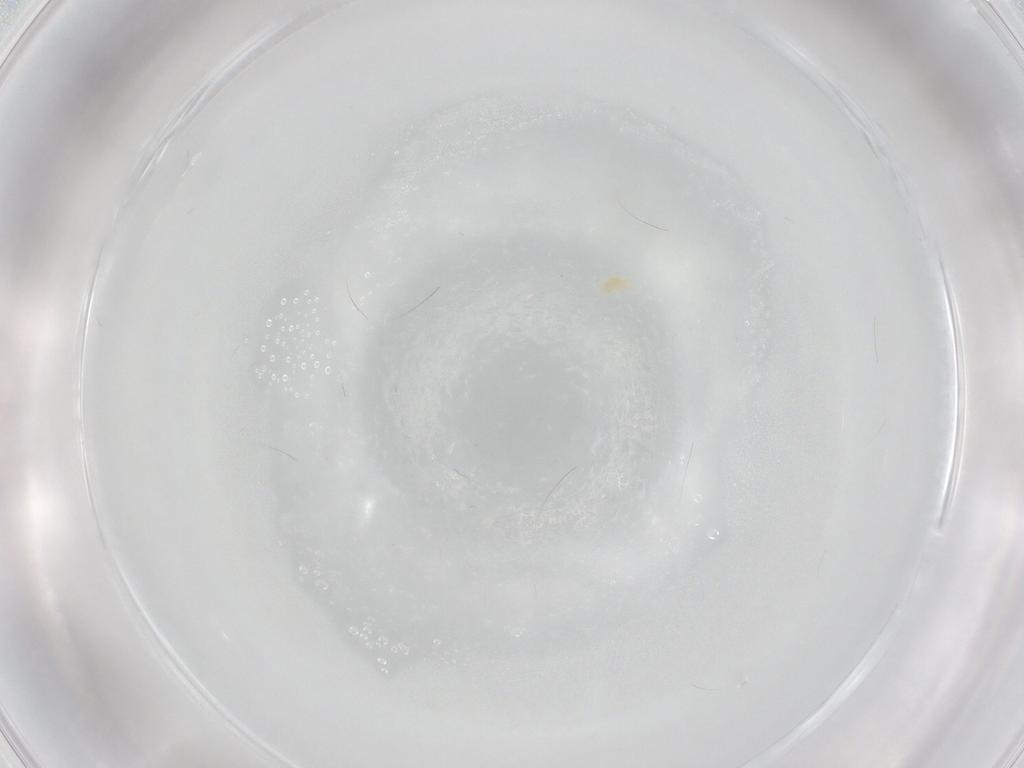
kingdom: Animalia
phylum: Arthropoda
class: Arachnida
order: Trombidiformes
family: Eupodidae
